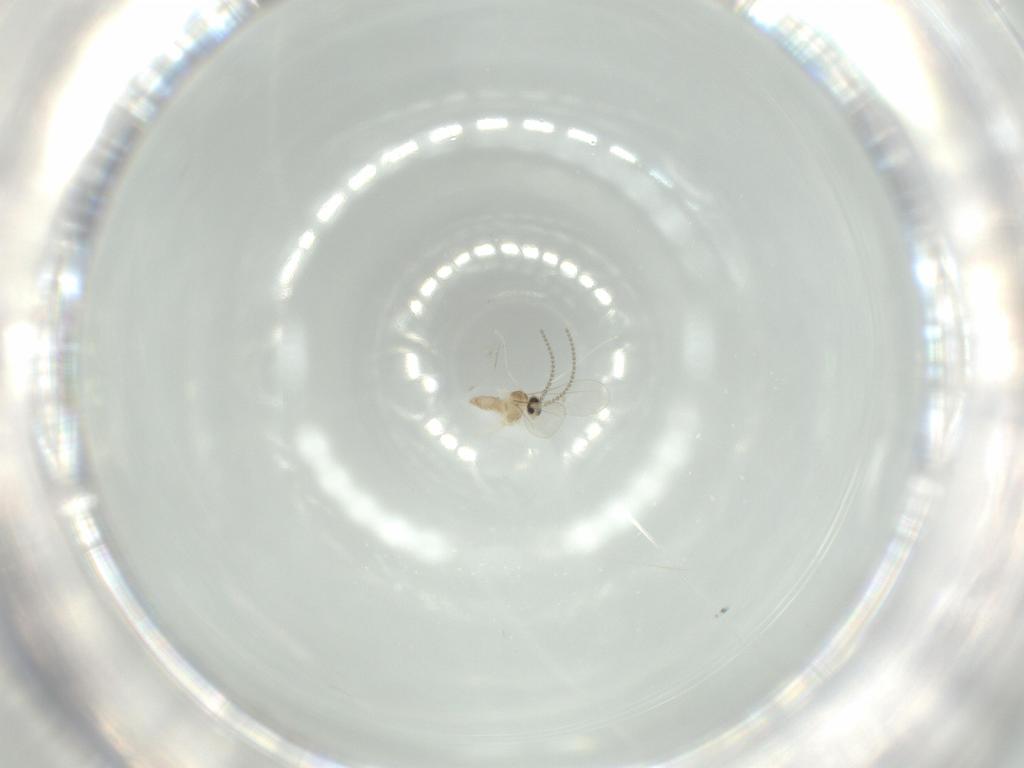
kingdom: Animalia
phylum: Arthropoda
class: Insecta
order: Diptera
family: Cecidomyiidae
